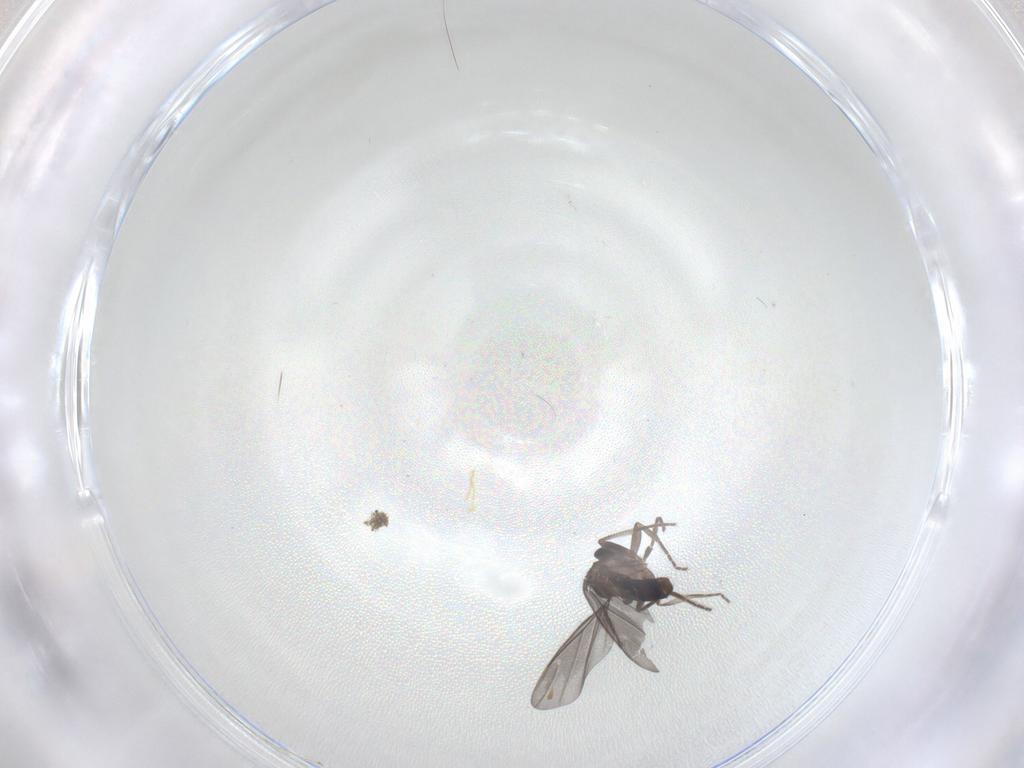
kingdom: Animalia
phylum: Arthropoda
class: Insecta
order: Diptera
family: Phoridae
